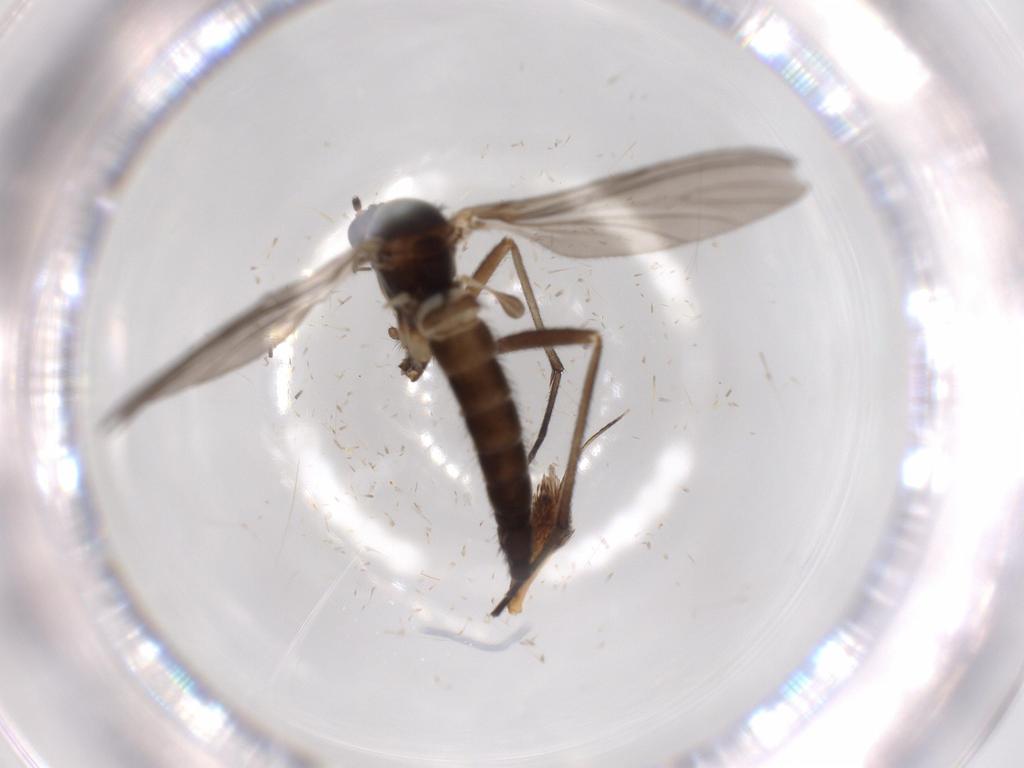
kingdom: Animalia
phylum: Arthropoda
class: Insecta
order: Diptera
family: Sciaridae
